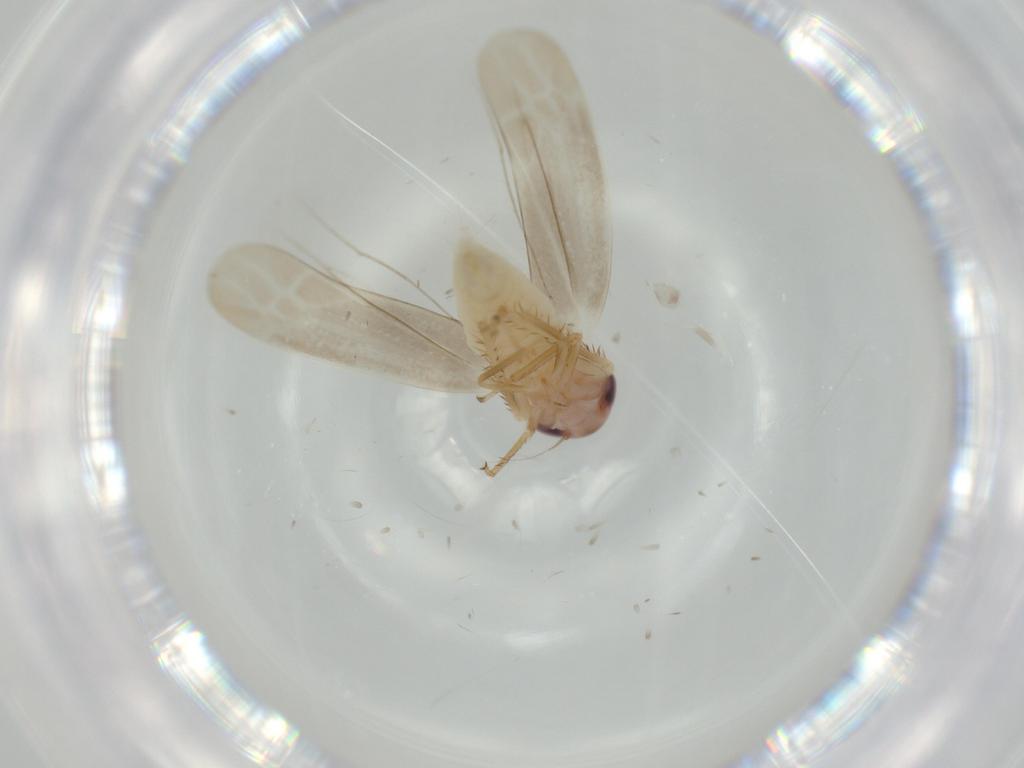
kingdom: Animalia
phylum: Arthropoda
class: Insecta
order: Hemiptera
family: Cicadellidae
